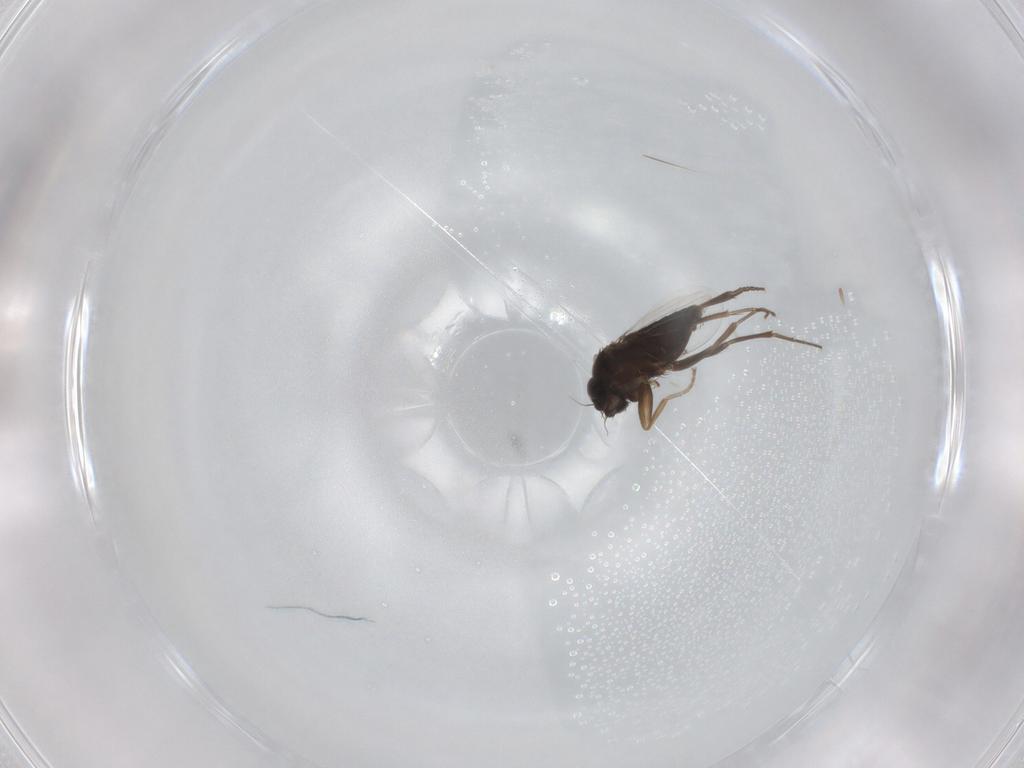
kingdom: Animalia
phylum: Arthropoda
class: Insecta
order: Diptera
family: Phoridae
